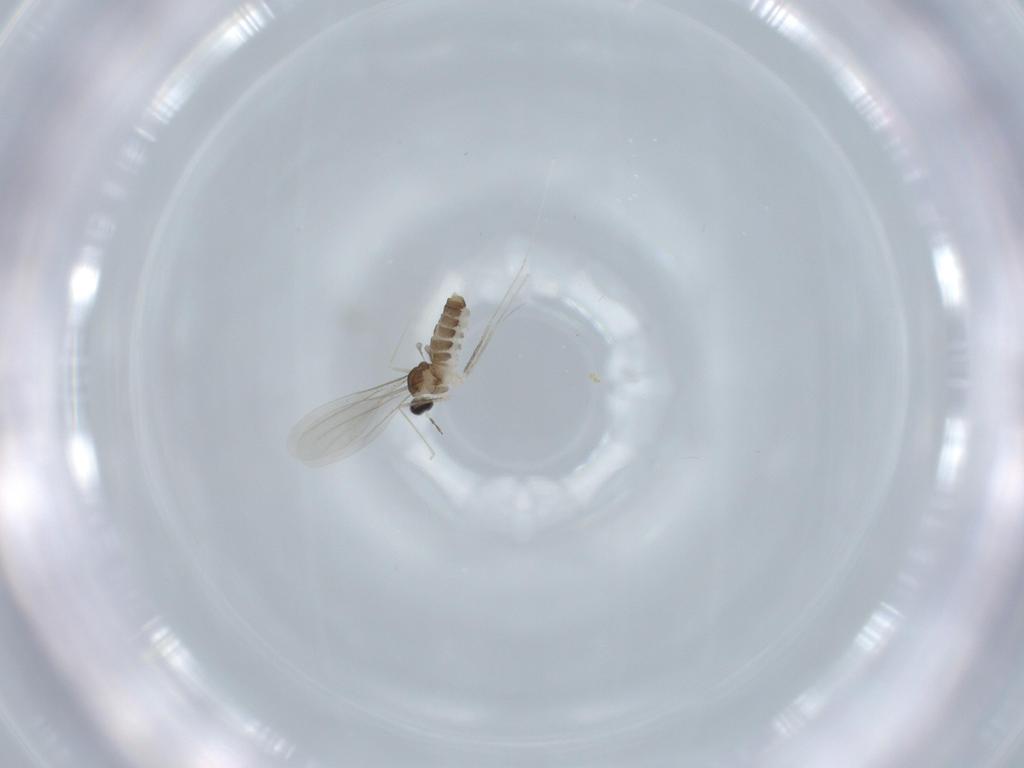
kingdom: Animalia
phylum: Arthropoda
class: Insecta
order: Diptera
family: Cecidomyiidae
